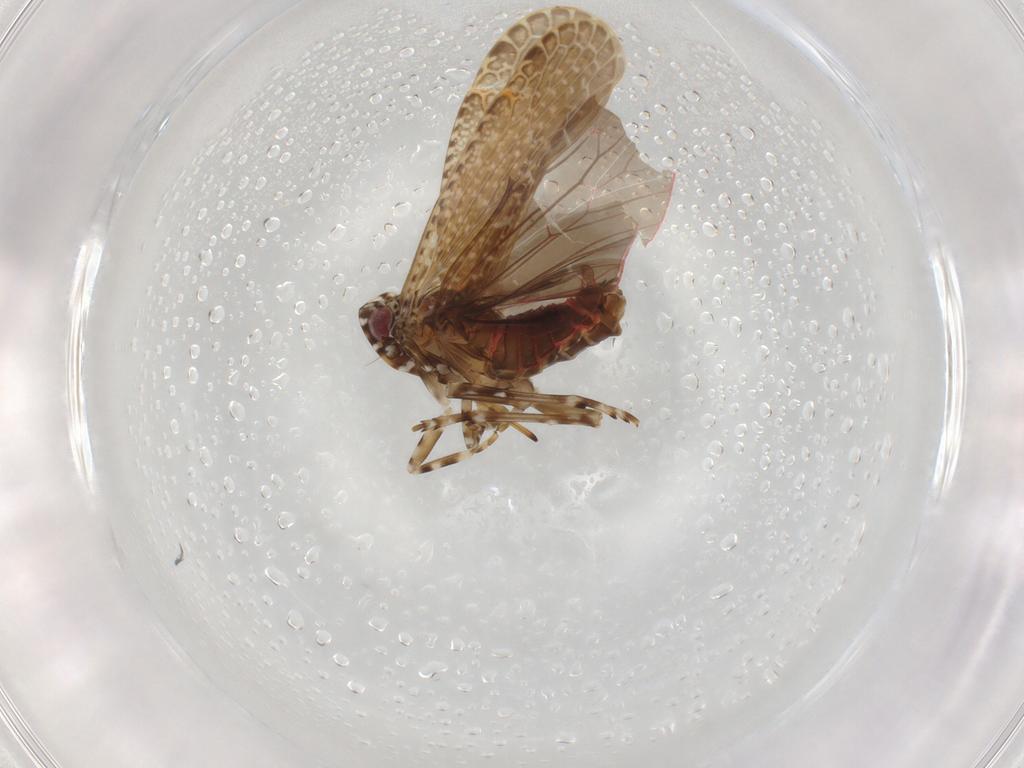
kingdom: Animalia
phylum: Arthropoda
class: Insecta
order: Hemiptera
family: Achilidae
